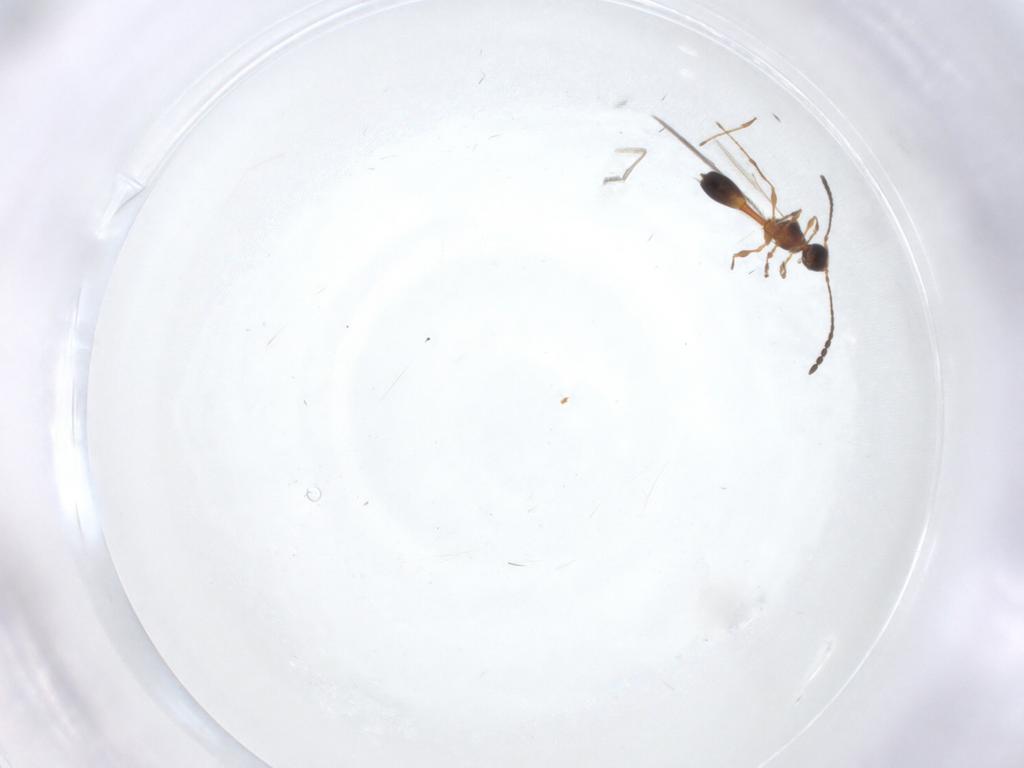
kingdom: Animalia
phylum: Arthropoda
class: Insecta
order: Hymenoptera
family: Diapriidae
